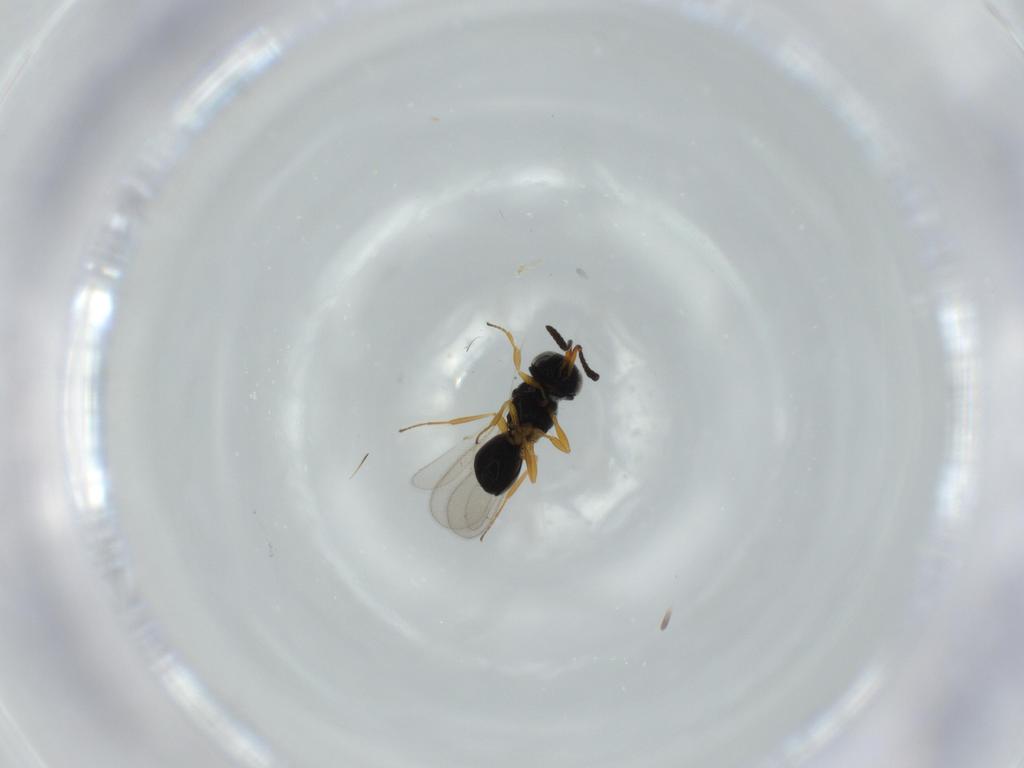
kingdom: Animalia
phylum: Arthropoda
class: Insecta
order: Hymenoptera
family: Scelionidae
